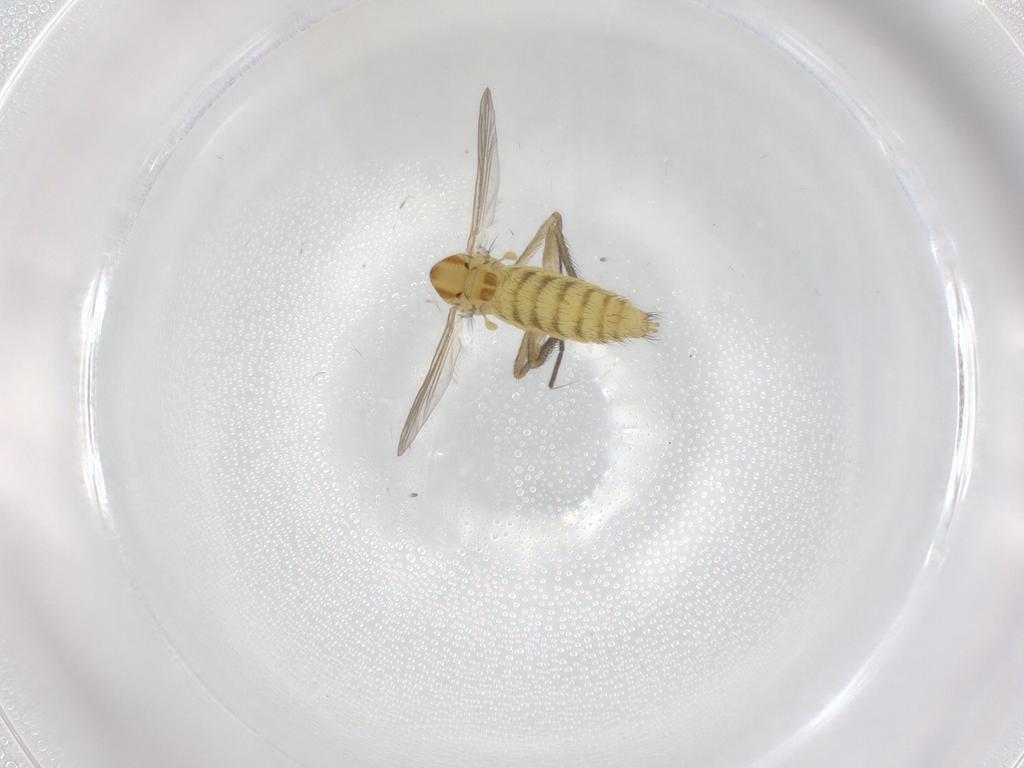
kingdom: Animalia
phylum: Arthropoda
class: Insecta
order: Diptera
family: Chironomidae
